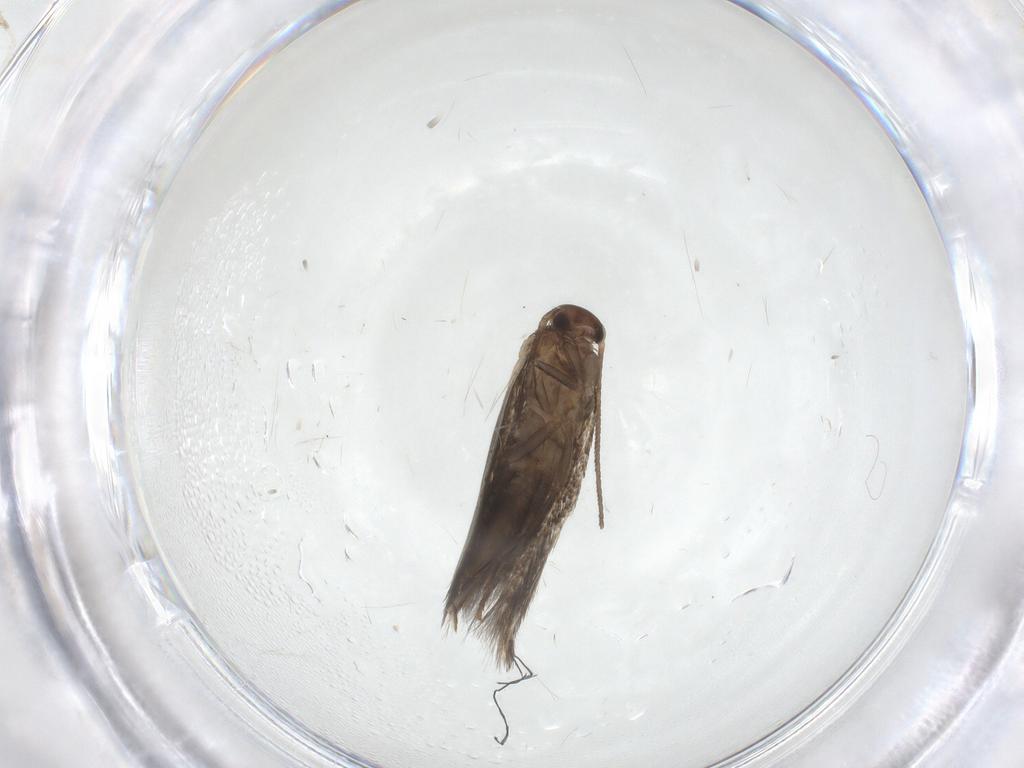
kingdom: Animalia
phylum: Arthropoda
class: Insecta
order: Lepidoptera
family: Elachistidae
